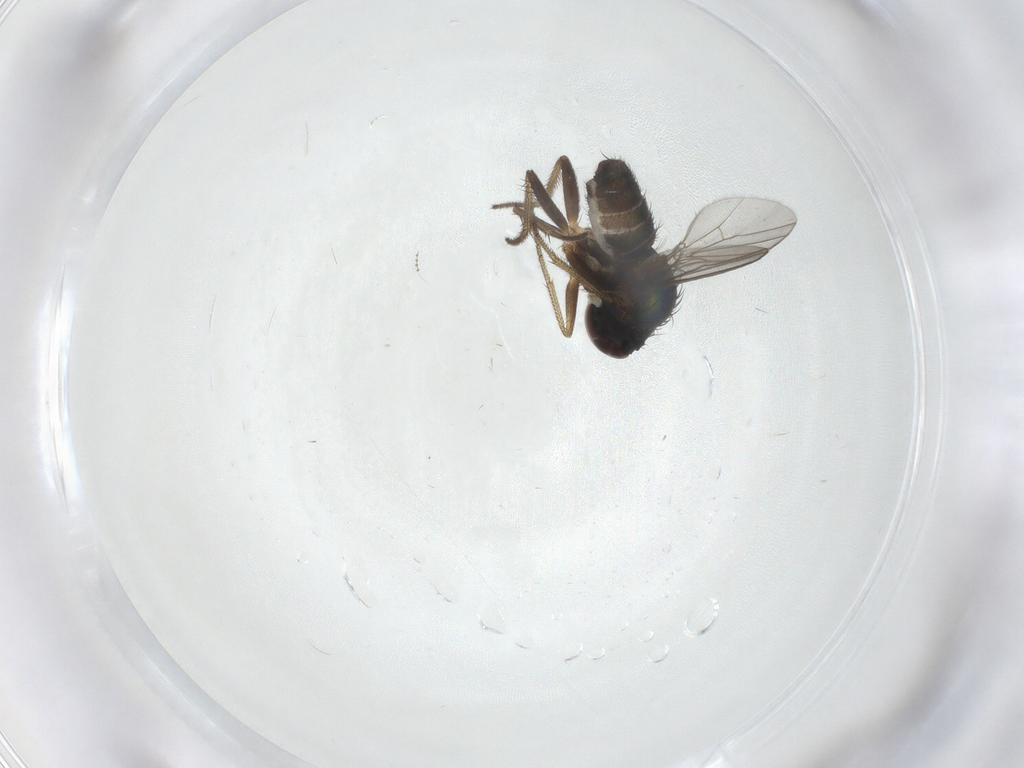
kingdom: Animalia
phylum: Arthropoda
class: Insecta
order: Diptera
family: Dolichopodidae
